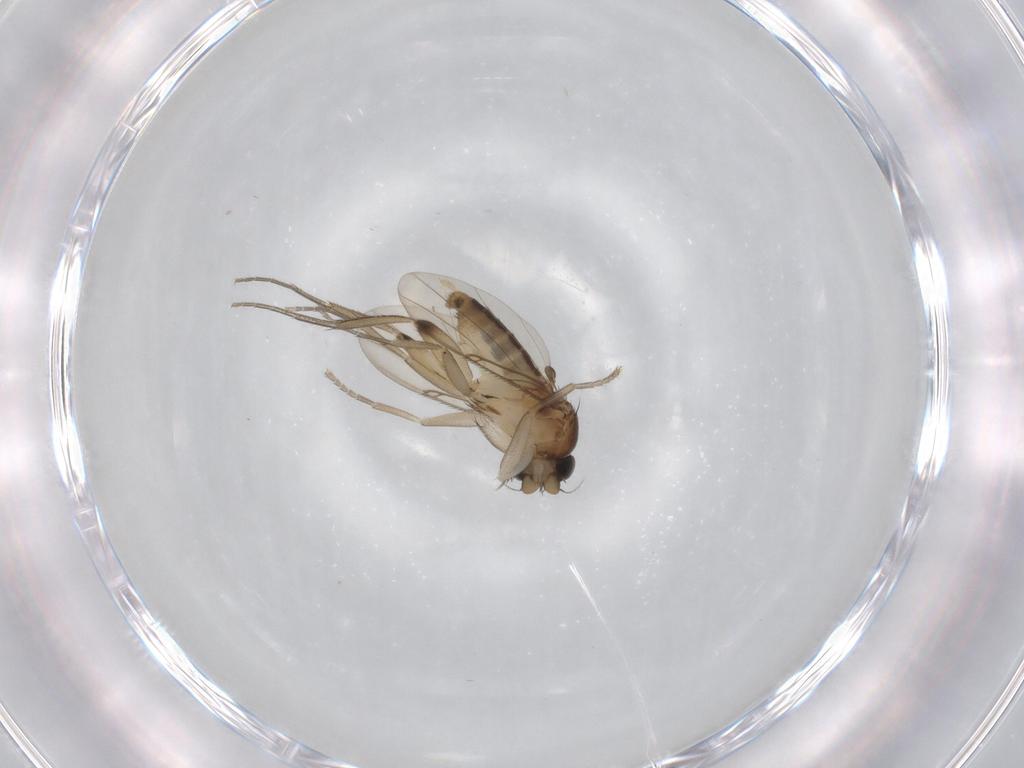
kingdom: Animalia
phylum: Arthropoda
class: Insecta
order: Diptera
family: Phoridae
